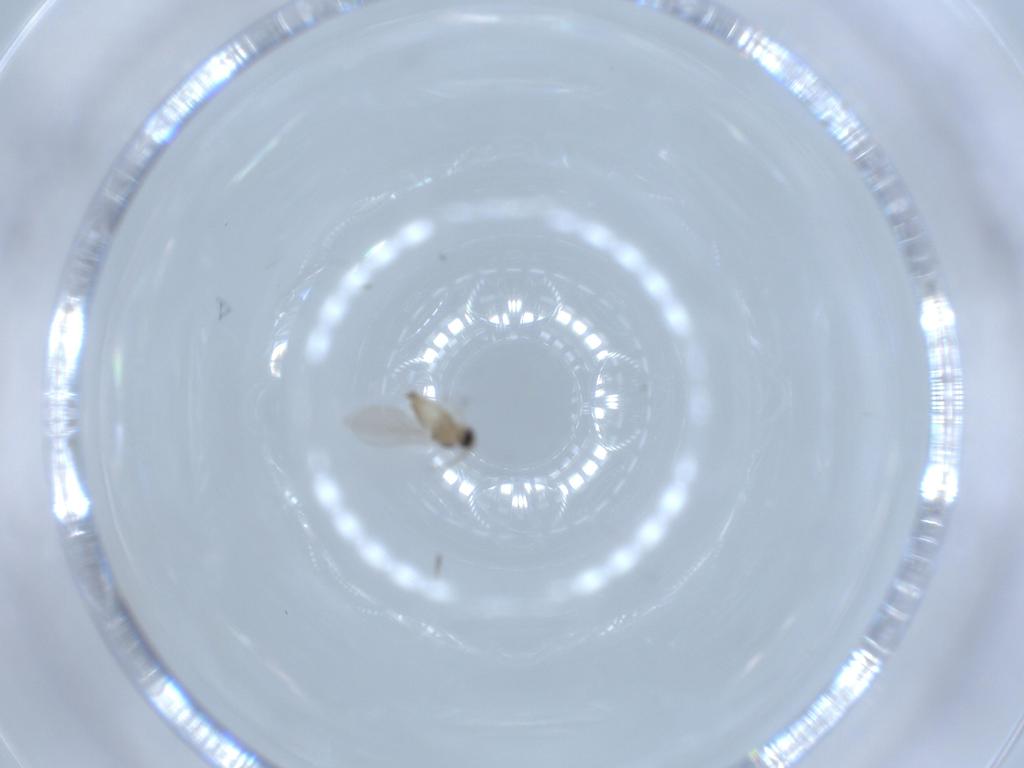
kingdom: Animalia
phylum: Arthropoda
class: Insecta
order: Diptera
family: Cecidomyiidae
